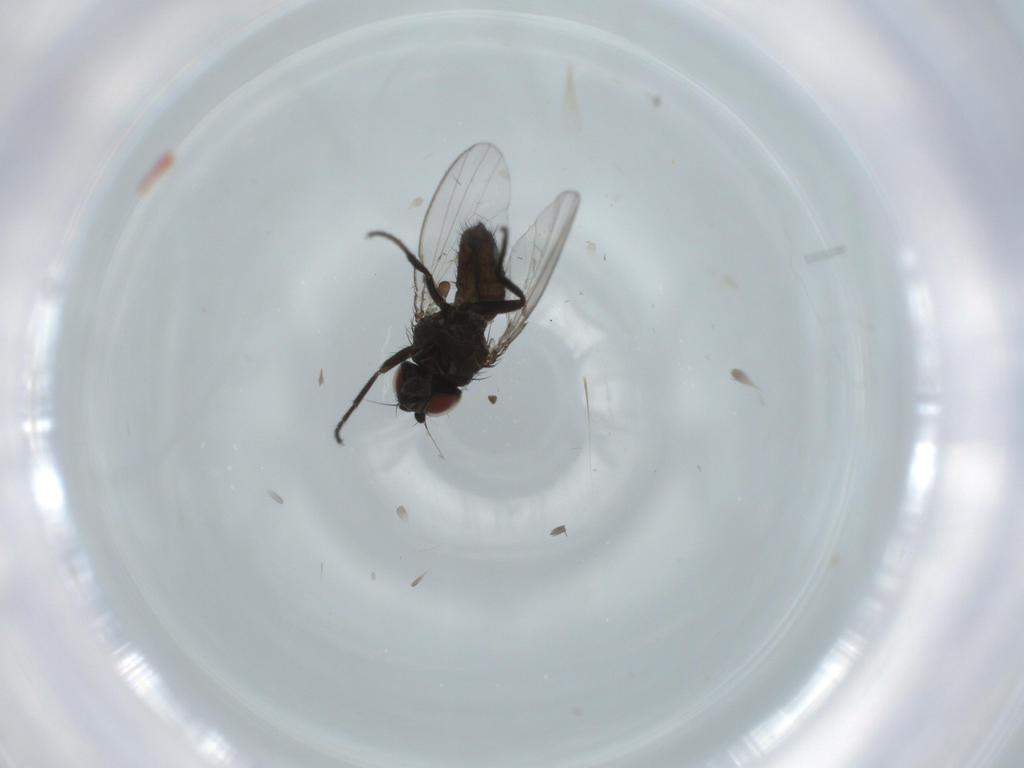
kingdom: Animalia
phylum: Arthropoda
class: Insecta
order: Diptera
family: Psychodidae
